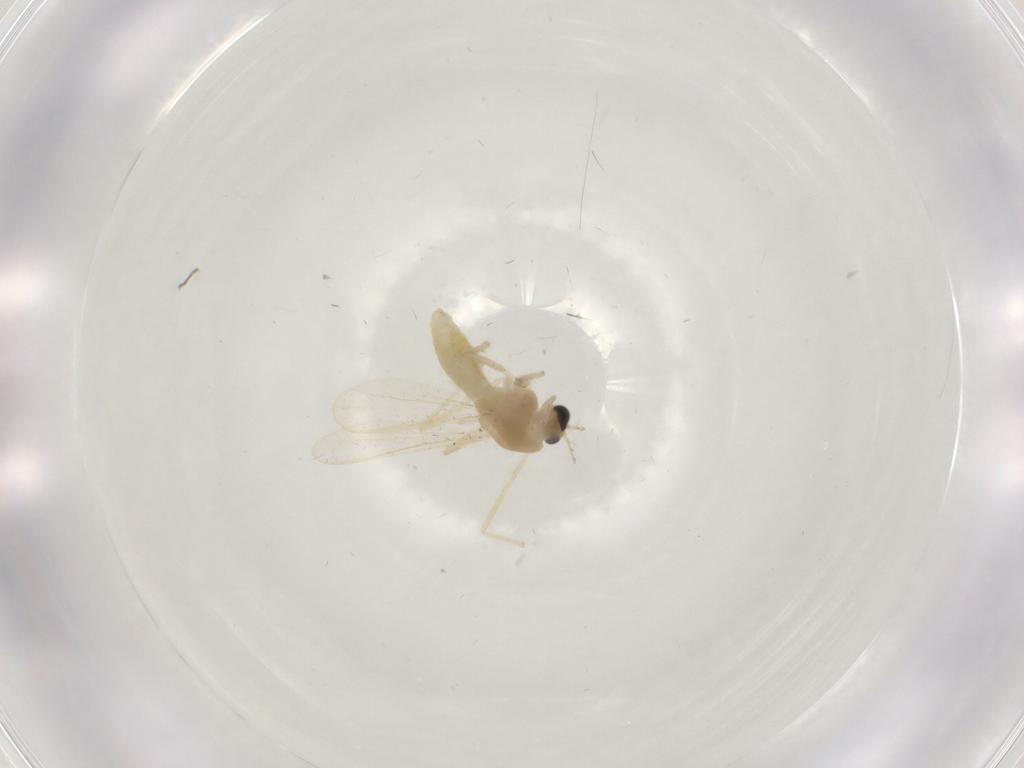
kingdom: Animalia
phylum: Arthropoda
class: Insecta
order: Diptera
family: Chironomidae
